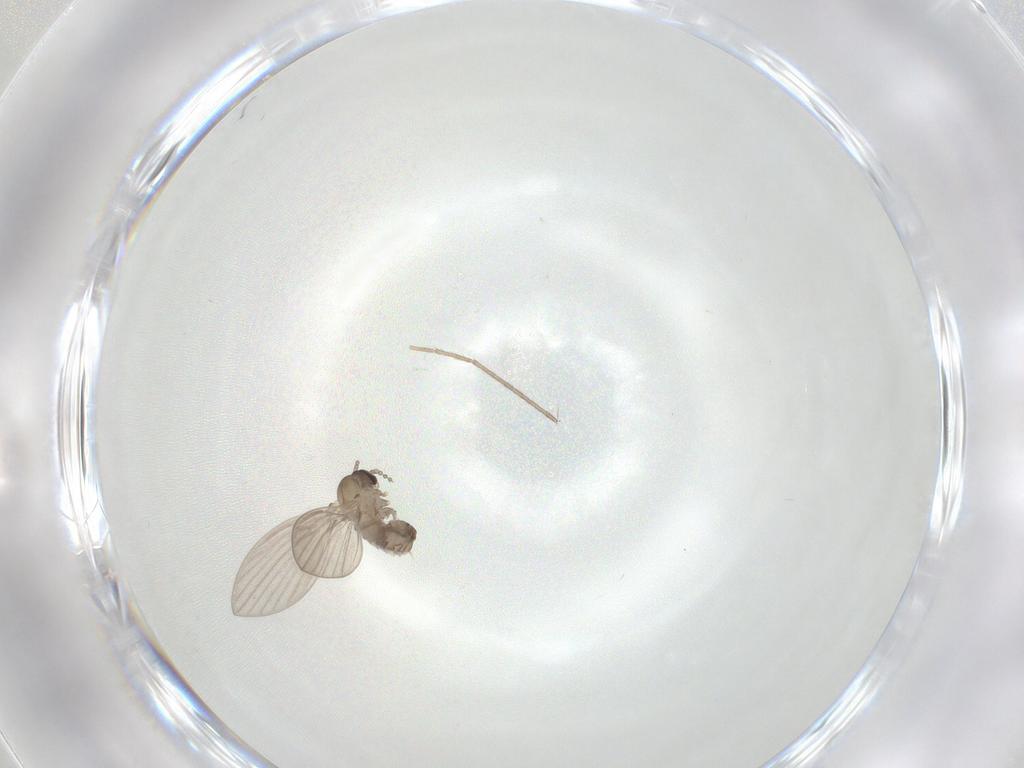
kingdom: Animalia
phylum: Arthropoda
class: Insecta
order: Diptera
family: Psychodidae
